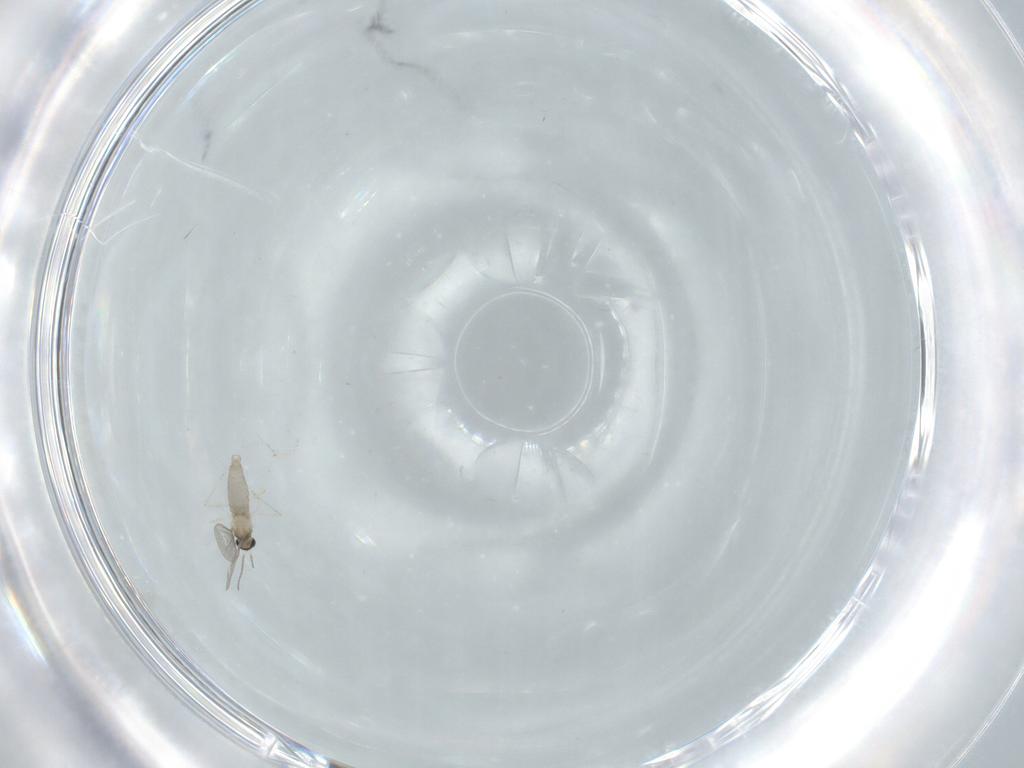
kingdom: Animalia
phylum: Arthropoda
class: Insecta
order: Diptera
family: Cecidomyiidae
